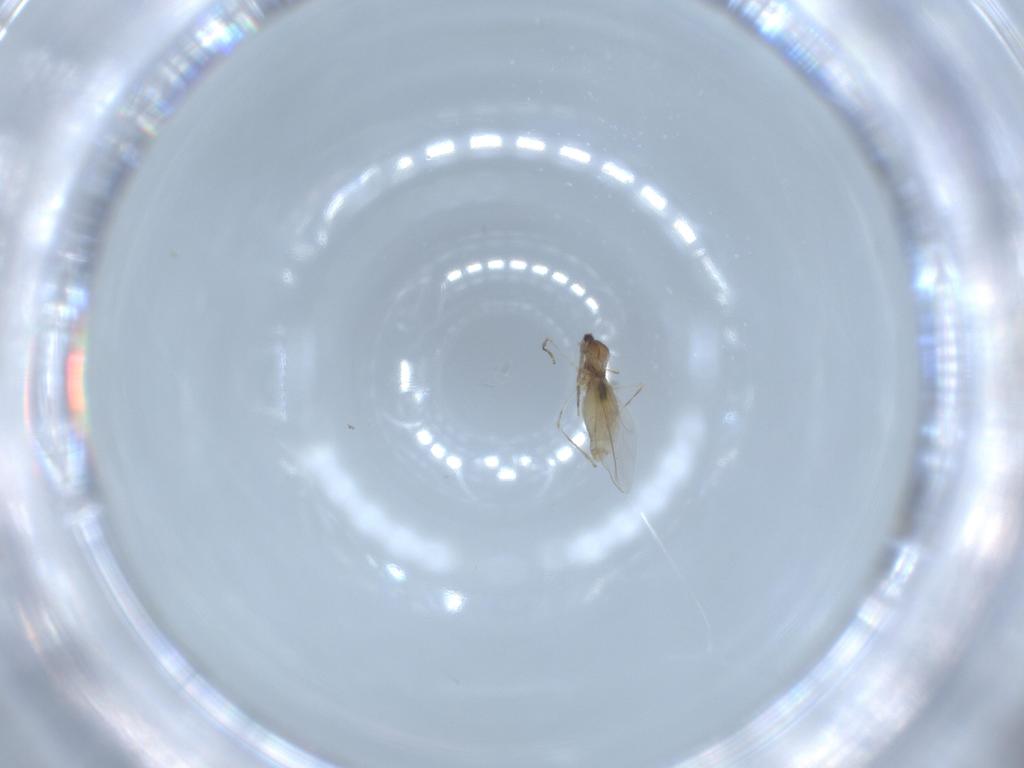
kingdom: Animalia
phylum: Arthropoda
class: Insecta
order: Diptera
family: Cecidomyiidae
